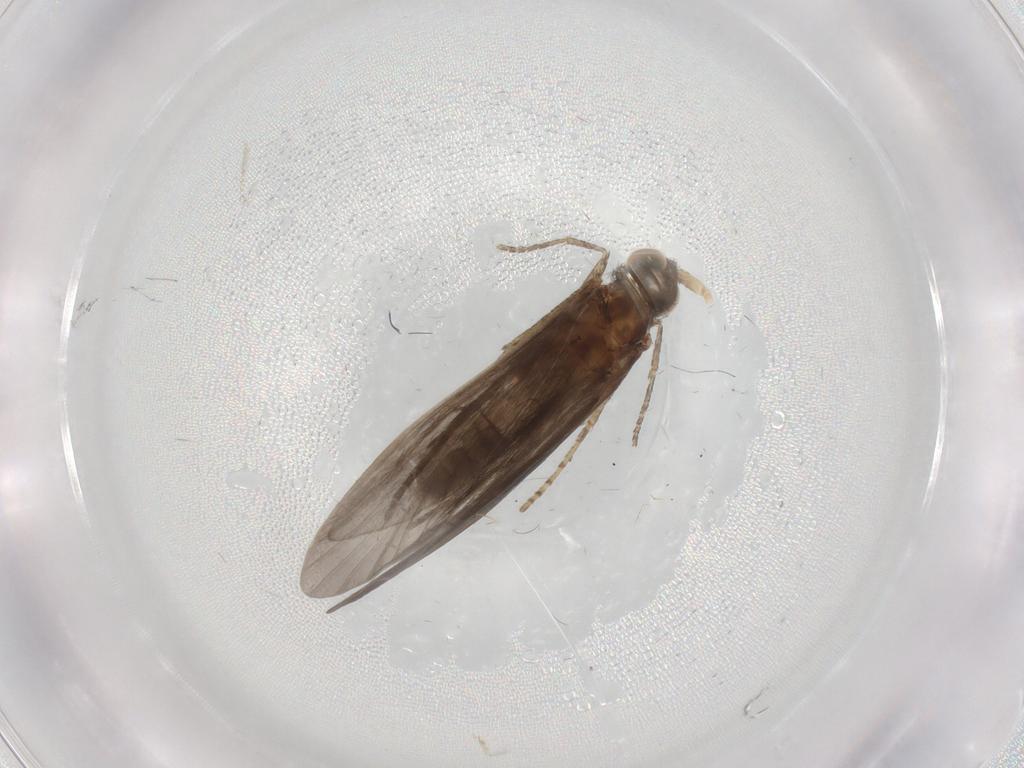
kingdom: Animalia
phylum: Arthropoda
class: Insecta
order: Trichoptera
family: Helicopsychidae
